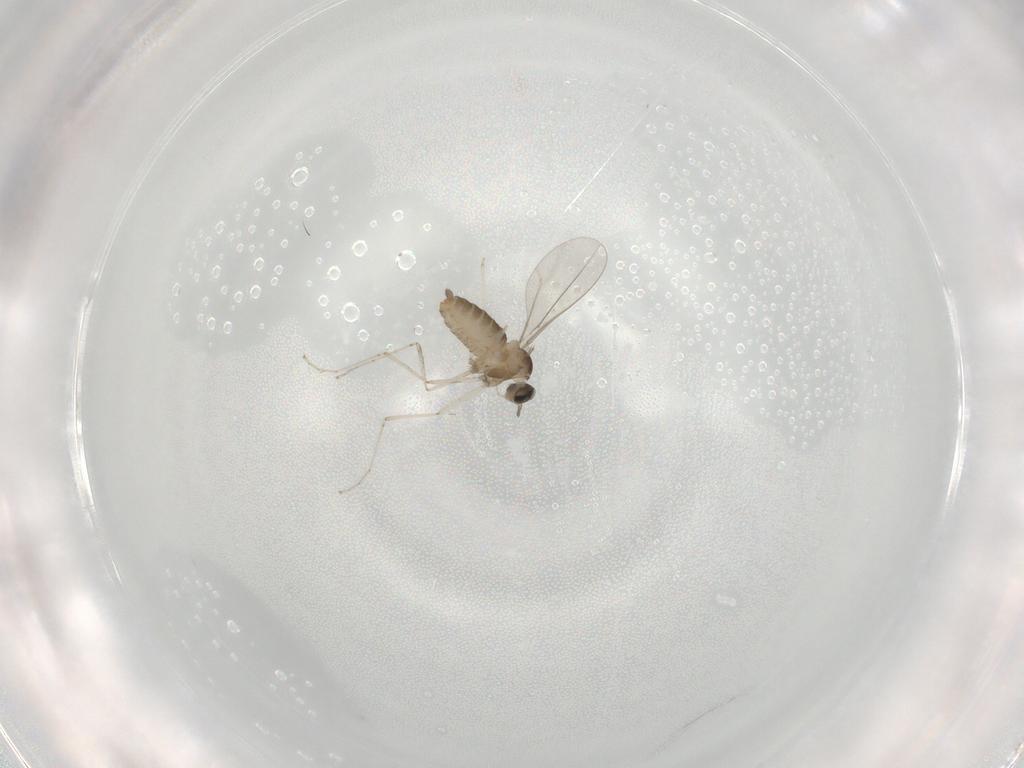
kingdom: Animalia
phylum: Arthropoda
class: Insecta
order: Diptera
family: Cecidomyiidae
